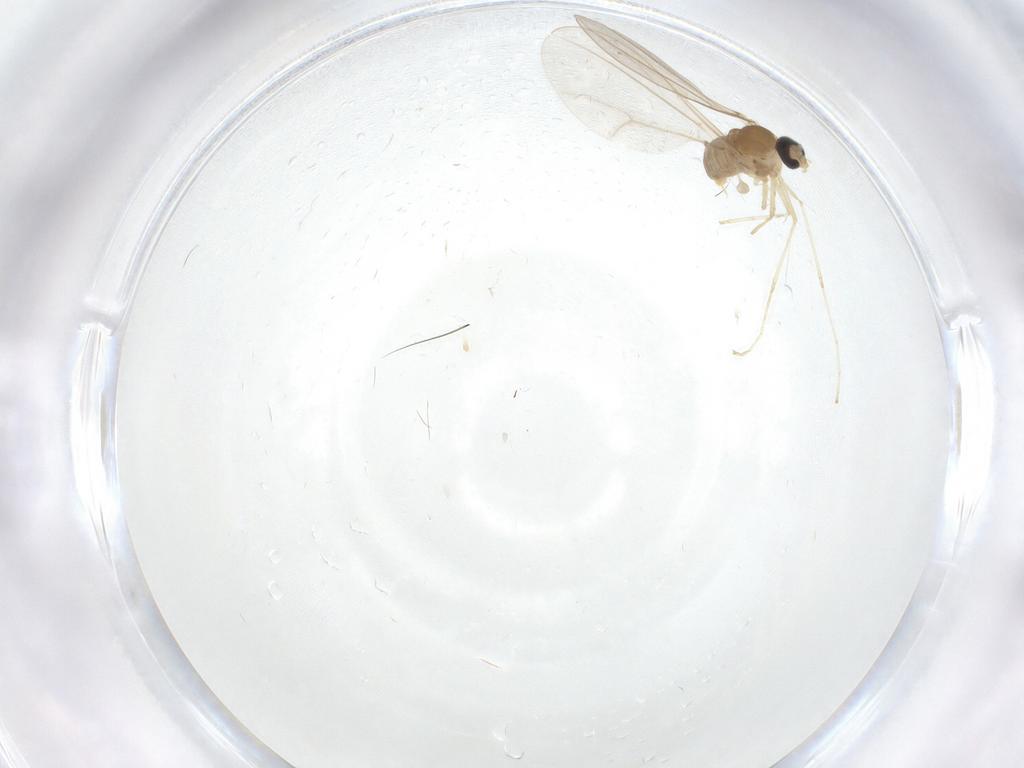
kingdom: Animalia
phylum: Arthropoda
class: Insecta
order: Diptera
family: Cecidomyiidae
